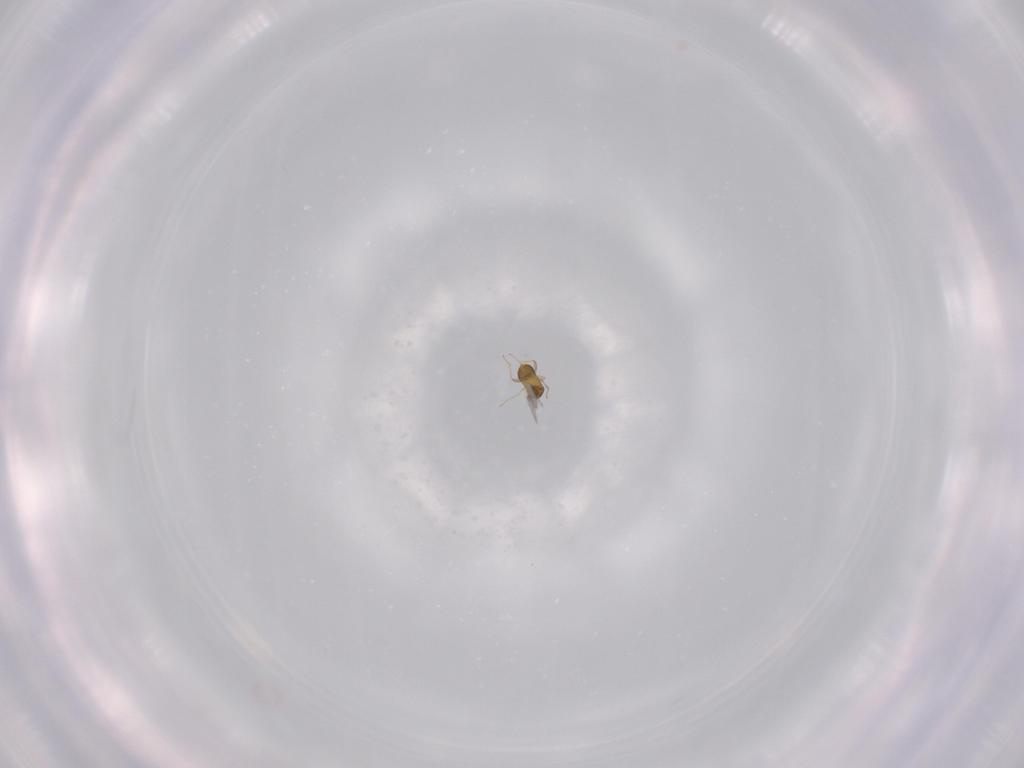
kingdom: Animalia
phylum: Arthropoda
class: Insecta
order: Hymenoptera
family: Trichogrammatidae
